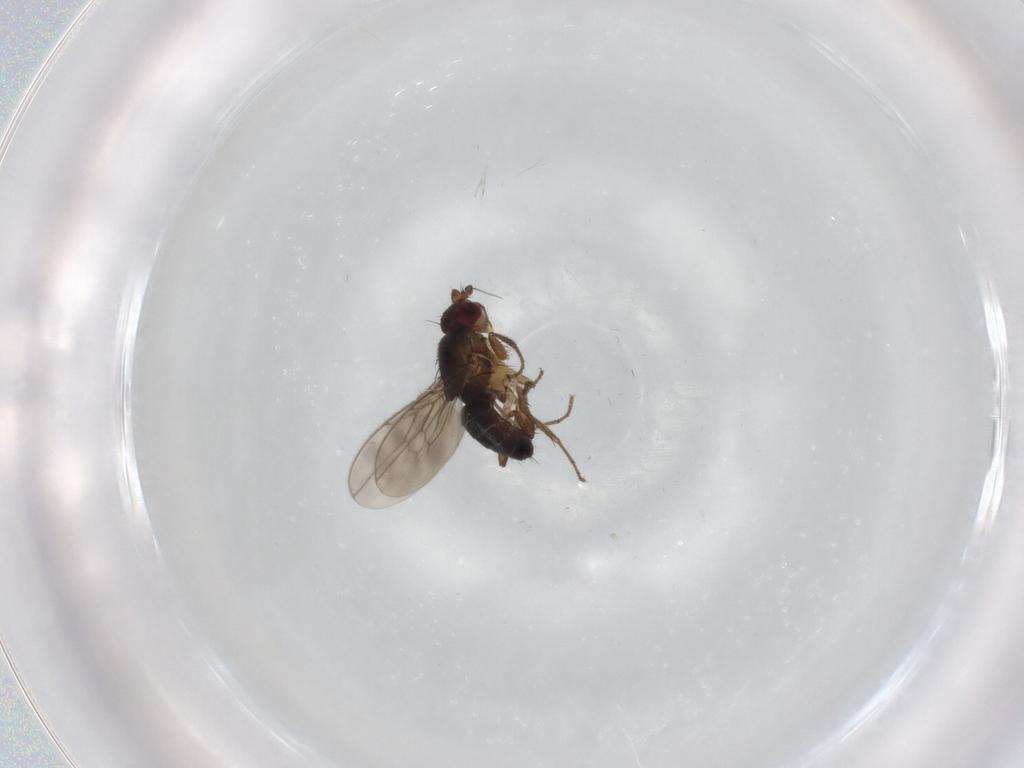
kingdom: Animalia
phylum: Arthropoda
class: Insecta
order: Diptera
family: Sphaeroceridae
